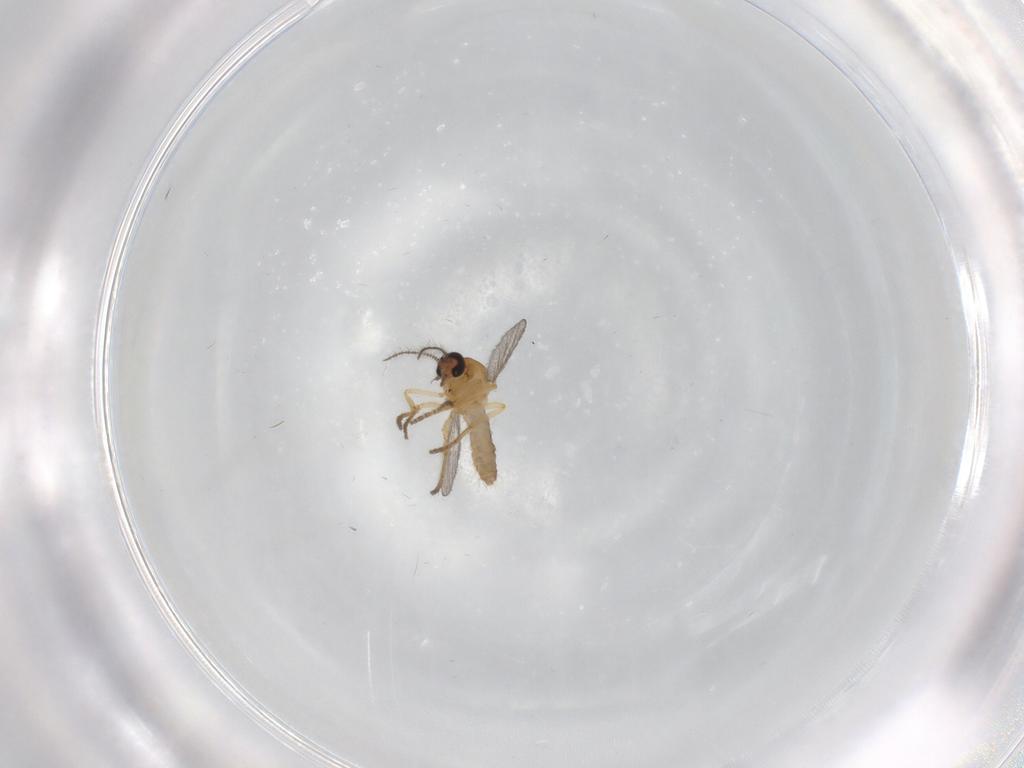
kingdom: Animalia
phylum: Arthropoda
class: Insecta
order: Diptera
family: Ceratopogonidae
